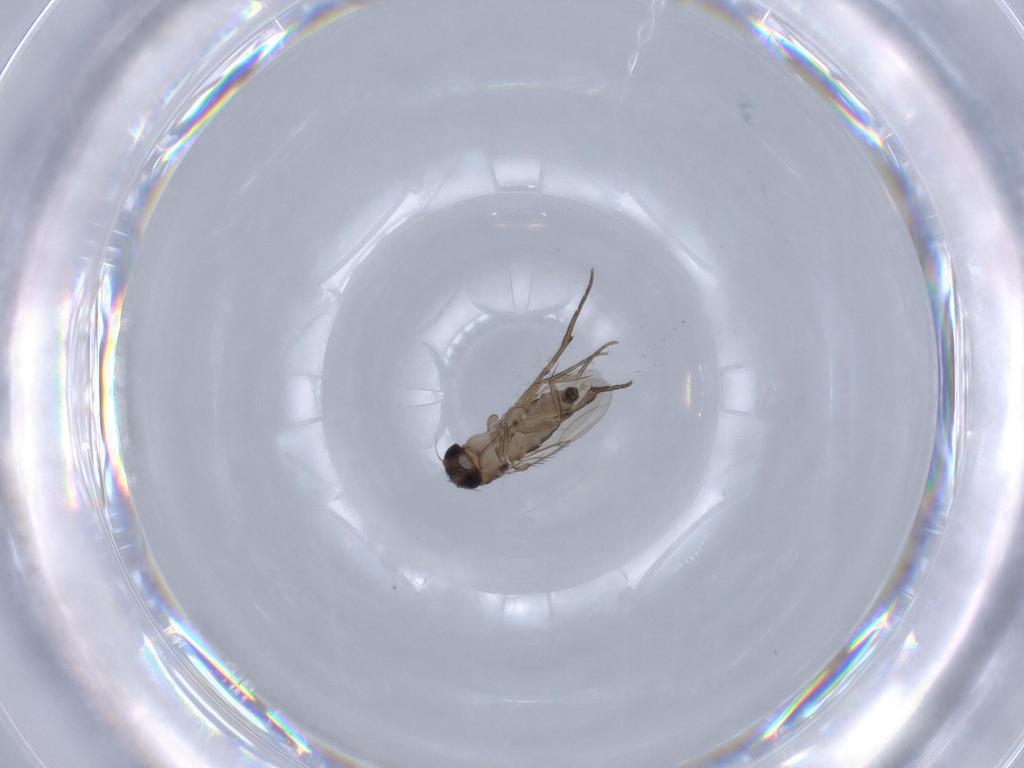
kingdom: Animalia
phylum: Arthropoda
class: Insecta
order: Diptera
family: Phoridae
